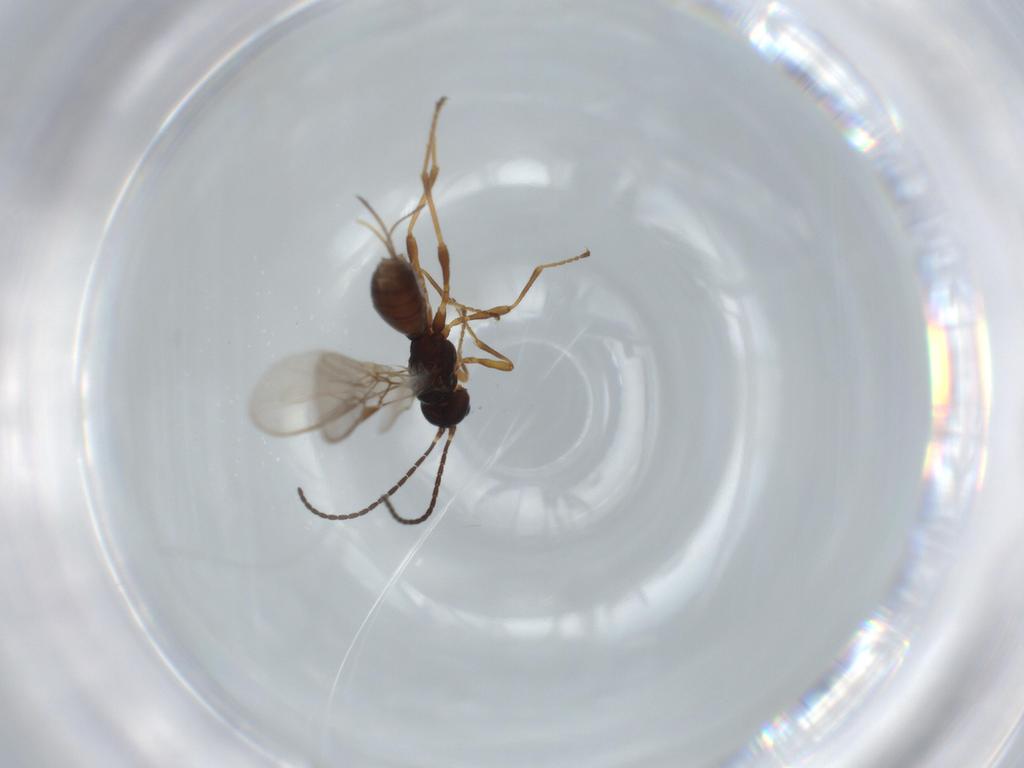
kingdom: Animalia
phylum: Arthropoda
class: Insecta
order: Hymenoptera
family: Braconidae
